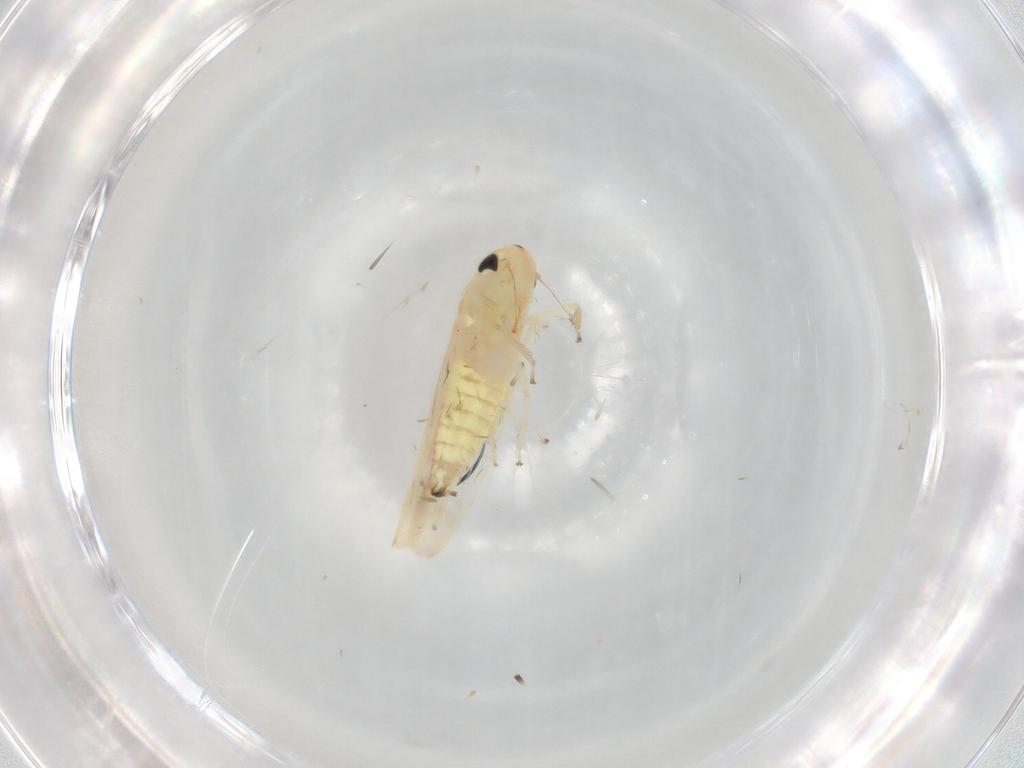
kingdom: Animalia
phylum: Arthropoda
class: Insecta
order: Hemiptera
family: Cicadellidae
